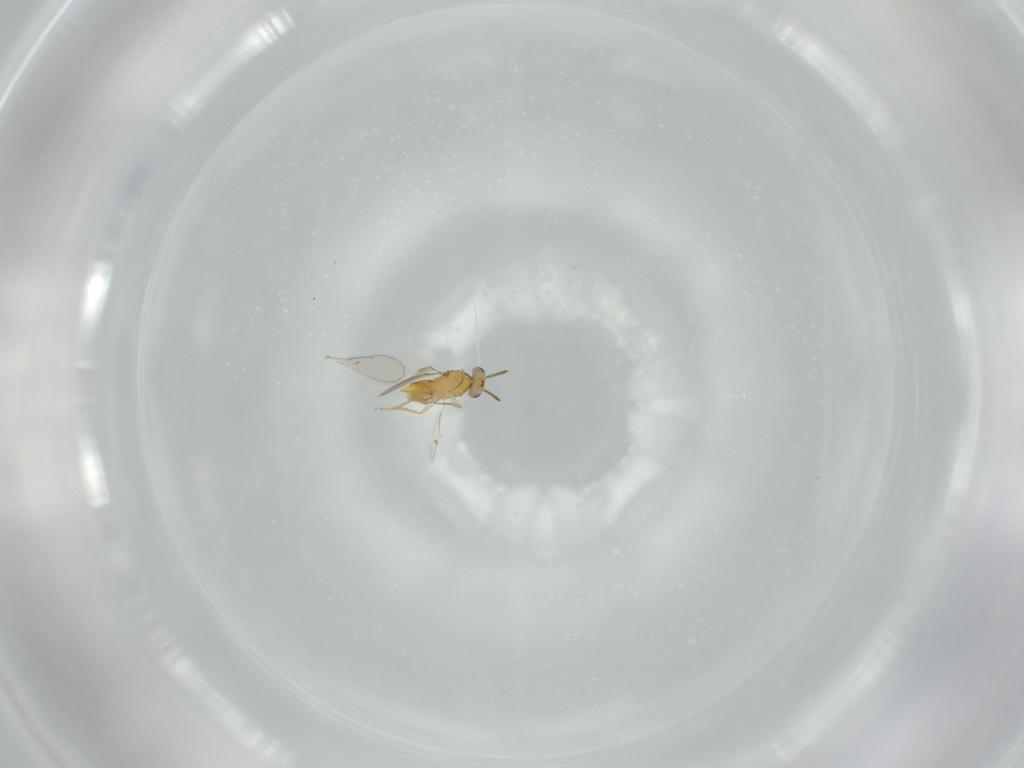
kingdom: Animalia
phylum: Arthropoda
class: Insecta
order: Hymenoptera
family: Aphelinidae
